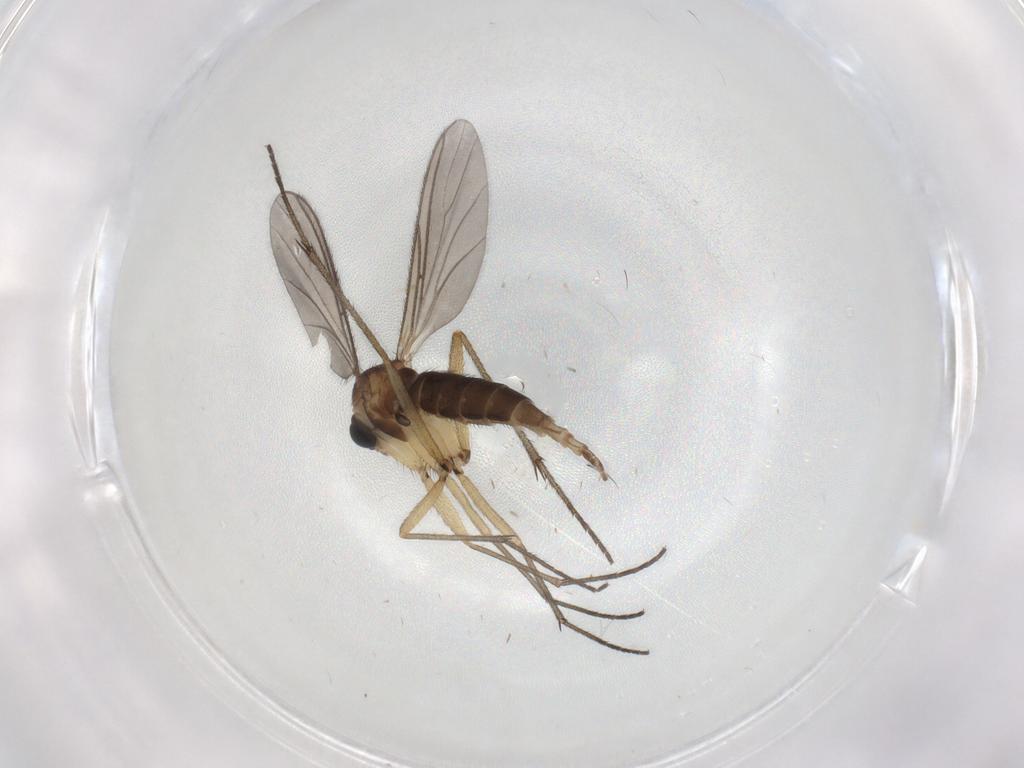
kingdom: Animalia
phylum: Arthropoda
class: Insecta
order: Diptera
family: Sciaridae
